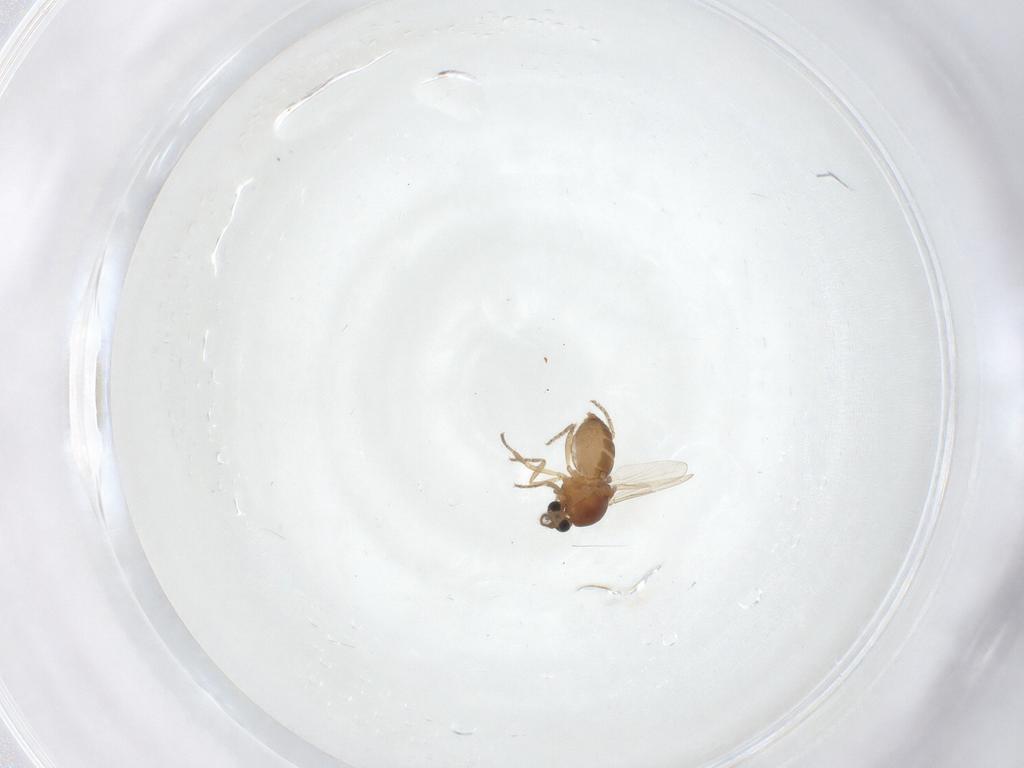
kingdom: Animalia
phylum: Arthropoda
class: Insecta
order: Diptera
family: Ceratopogonidae
